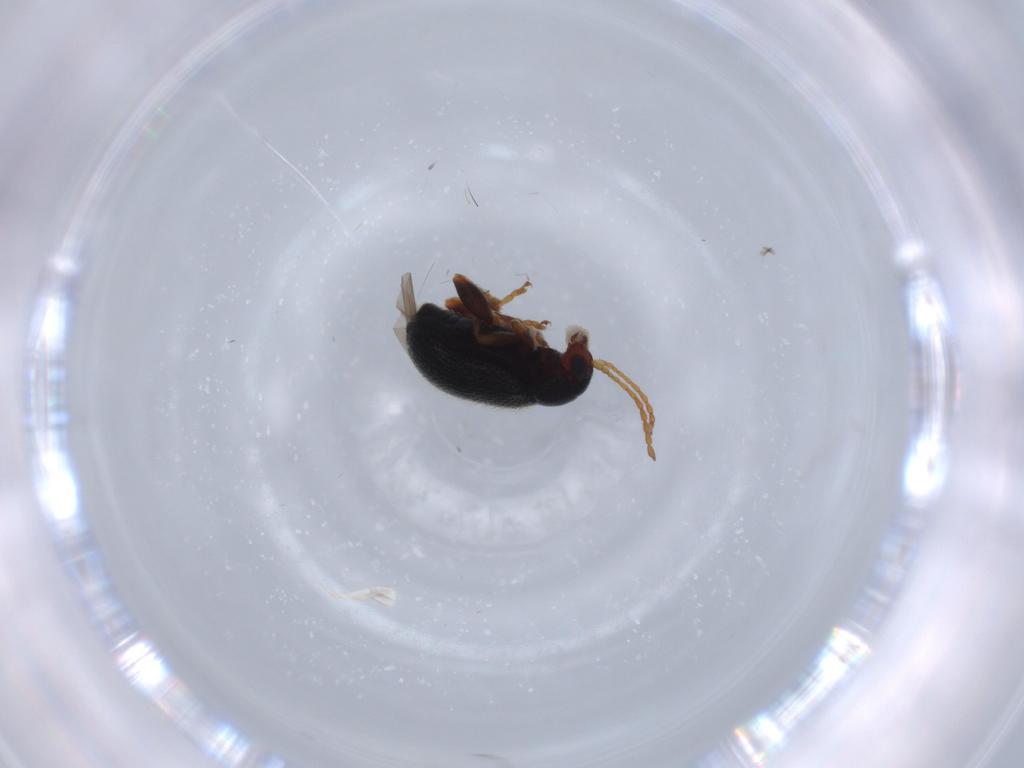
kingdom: Animalia
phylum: Arthropoda
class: Insecta
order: Coleoptera
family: Chrysomelidae
